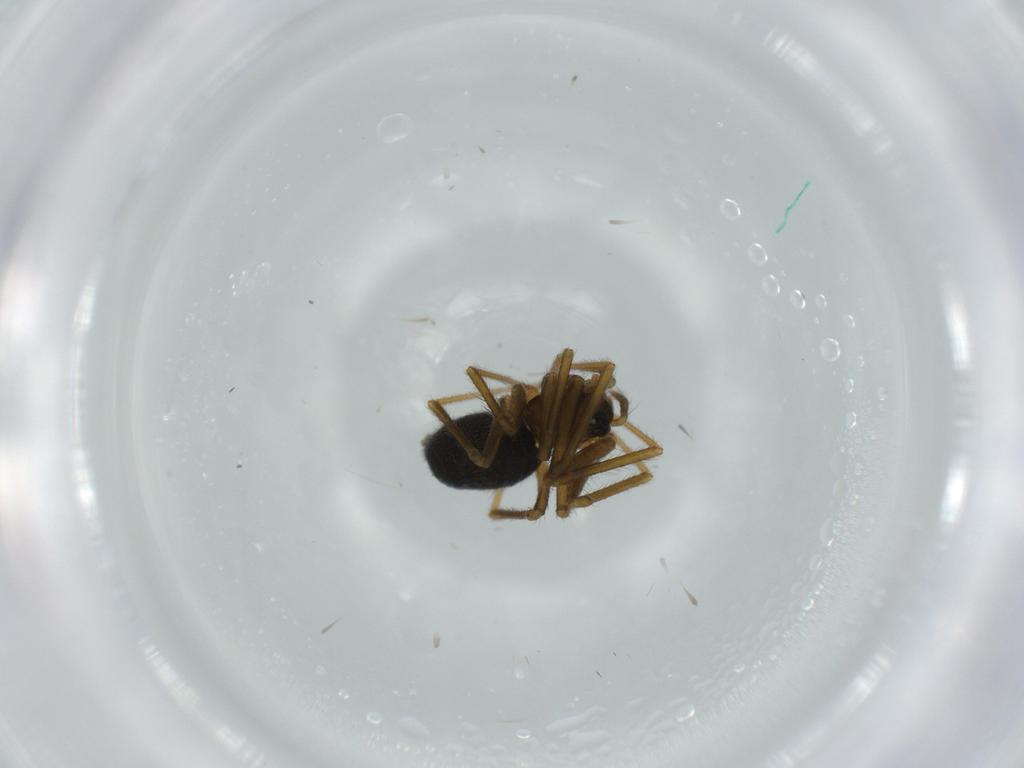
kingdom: Animalia
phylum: Arthropoda
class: Arachnida
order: Araneae
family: Linyphiidae
